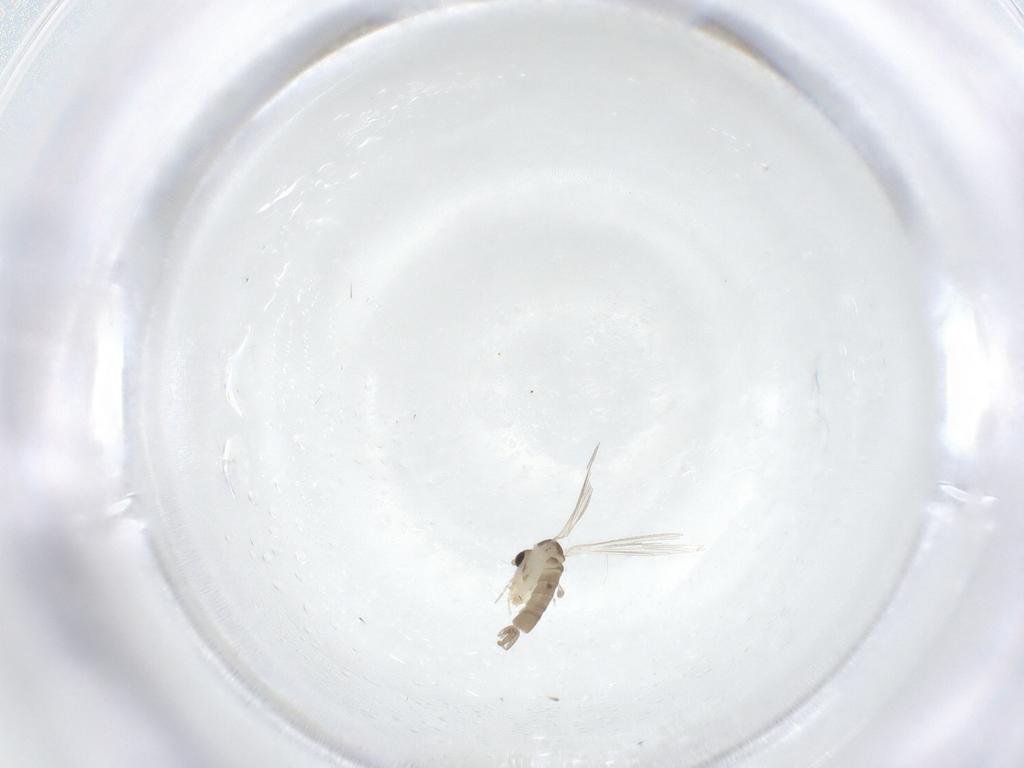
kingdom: Animalia
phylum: Arthropoda
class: Insecta
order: Diptera
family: Psychodidae
